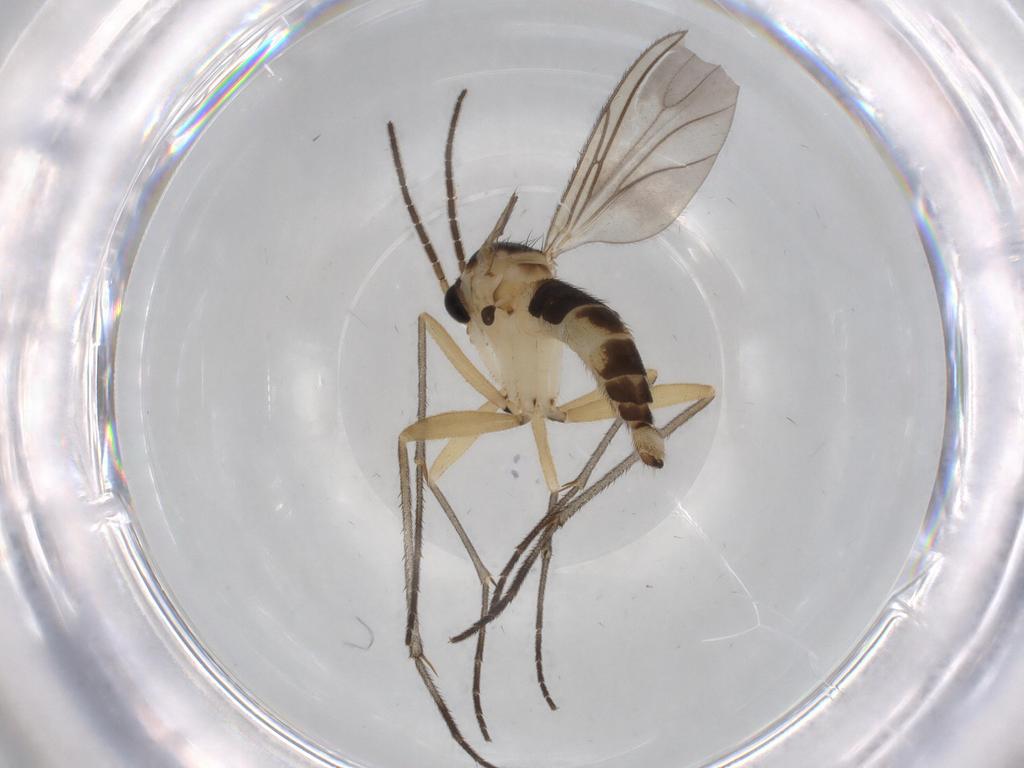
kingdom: Animalia
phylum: Arthropoda
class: Insecta
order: Diptera
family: Sciaridae
